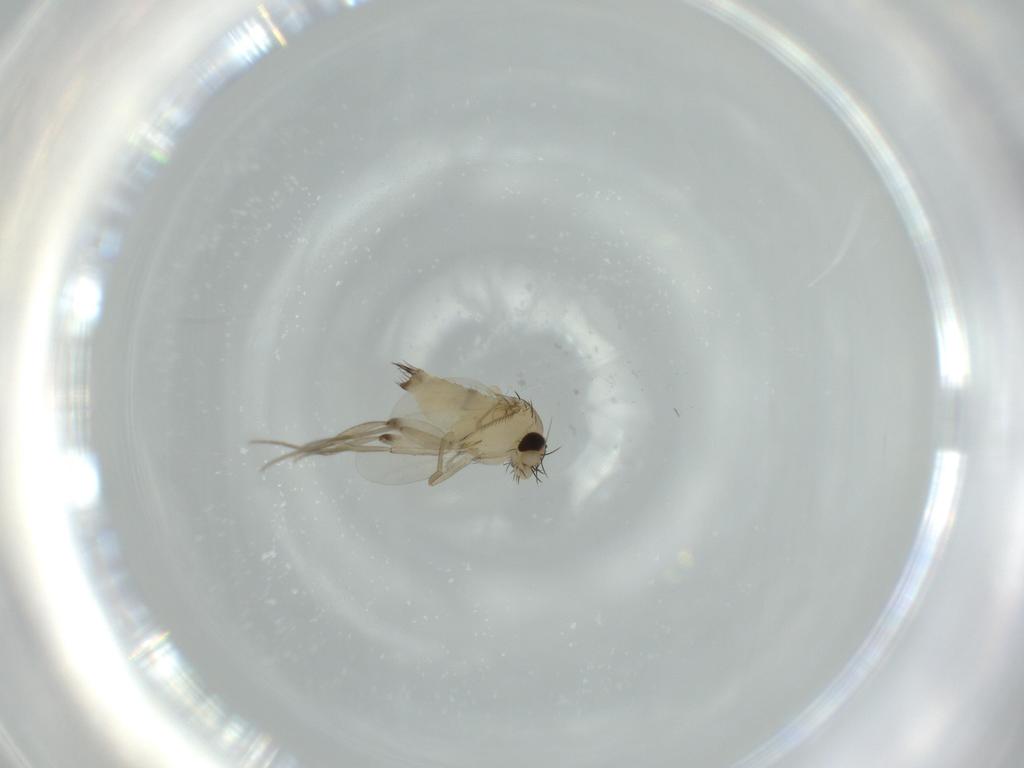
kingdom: Animalia
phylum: Arthropoda
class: Insecta
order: Diptera
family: Phoridae
